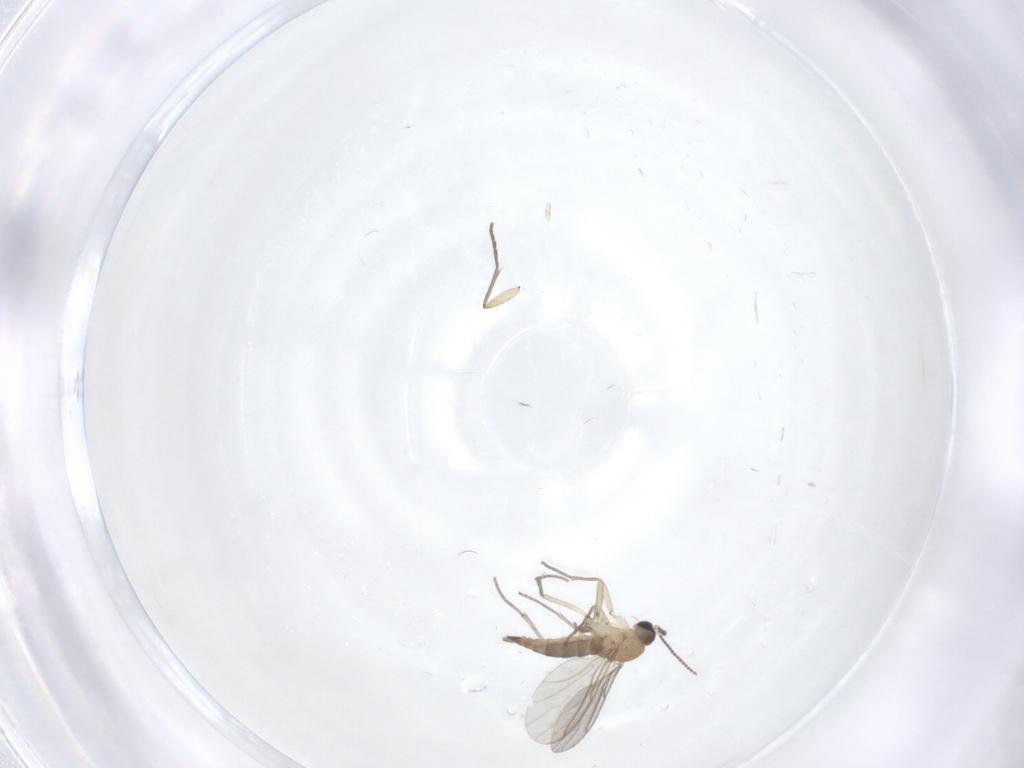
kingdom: Animalia
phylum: Arthropoda
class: Insecta
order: Diptera
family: Sciaridae
